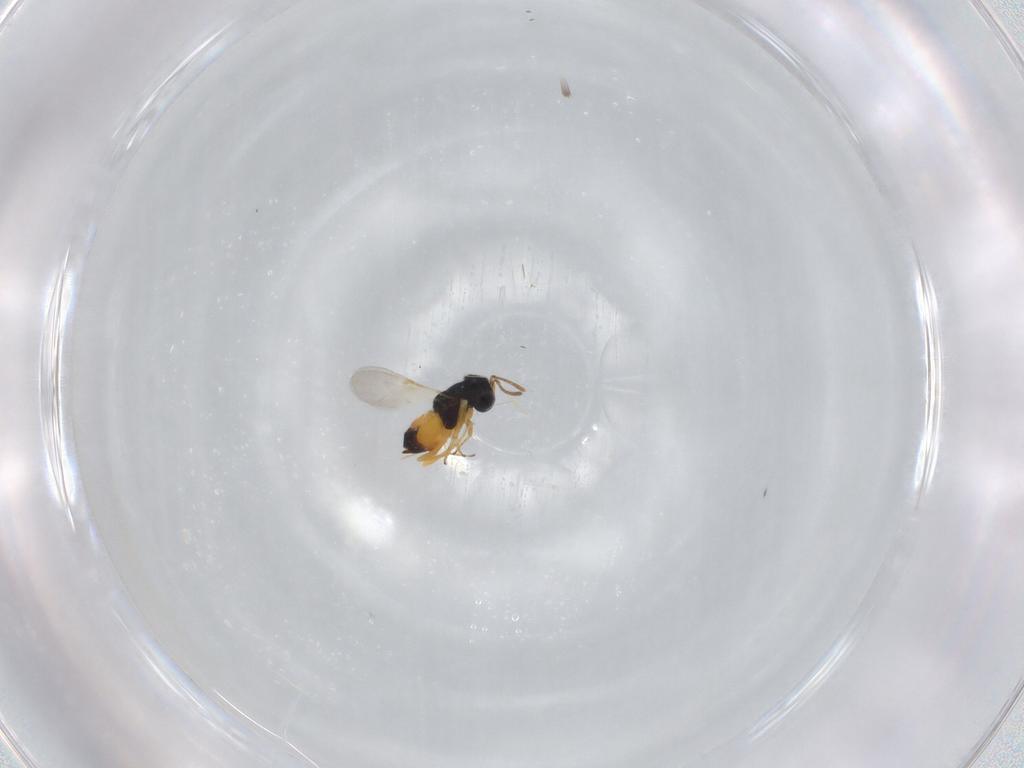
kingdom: Animalia
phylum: Arthropoda
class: Insecta
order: Hymenoptera
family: Encyrtidae
